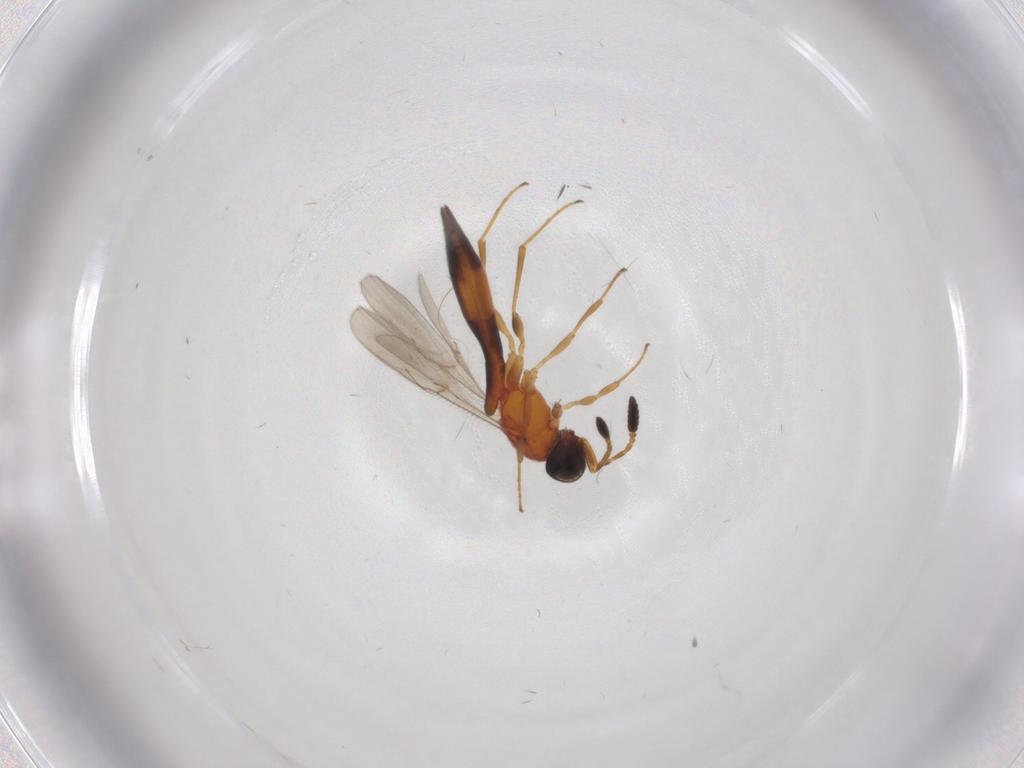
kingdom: Animalia
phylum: Arthropoda
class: Insecta
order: Hymenoptera
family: Scelionidae
